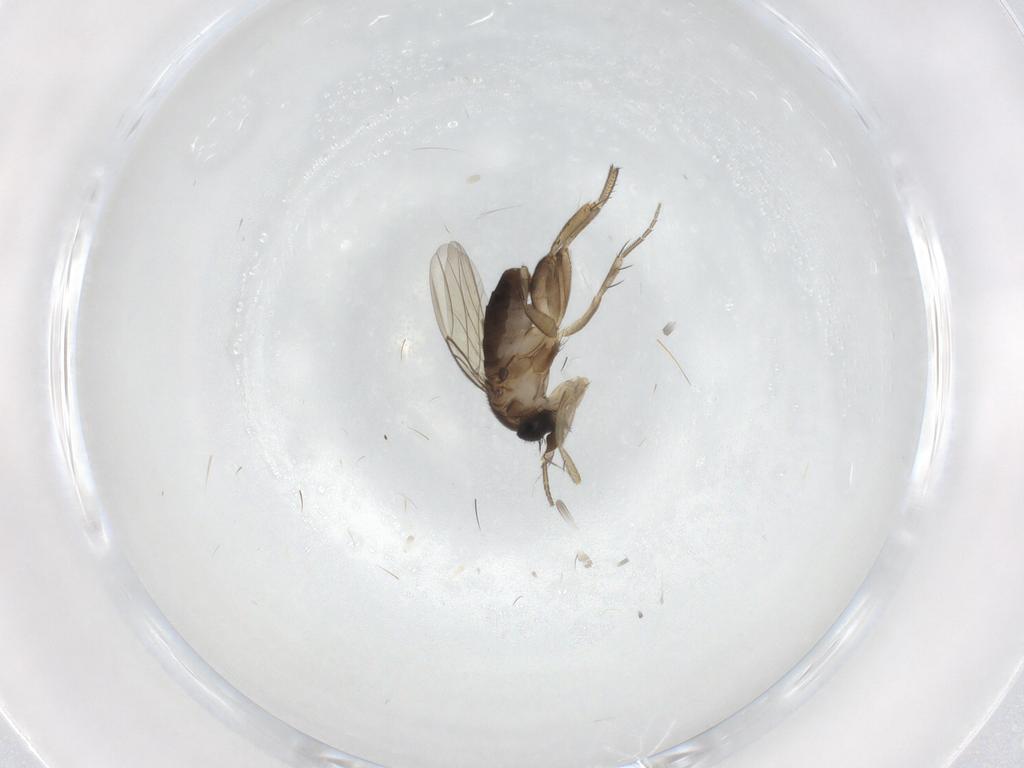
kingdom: Animalia
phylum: Arthropoda
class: Insecta
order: Diptera
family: Phoridae
